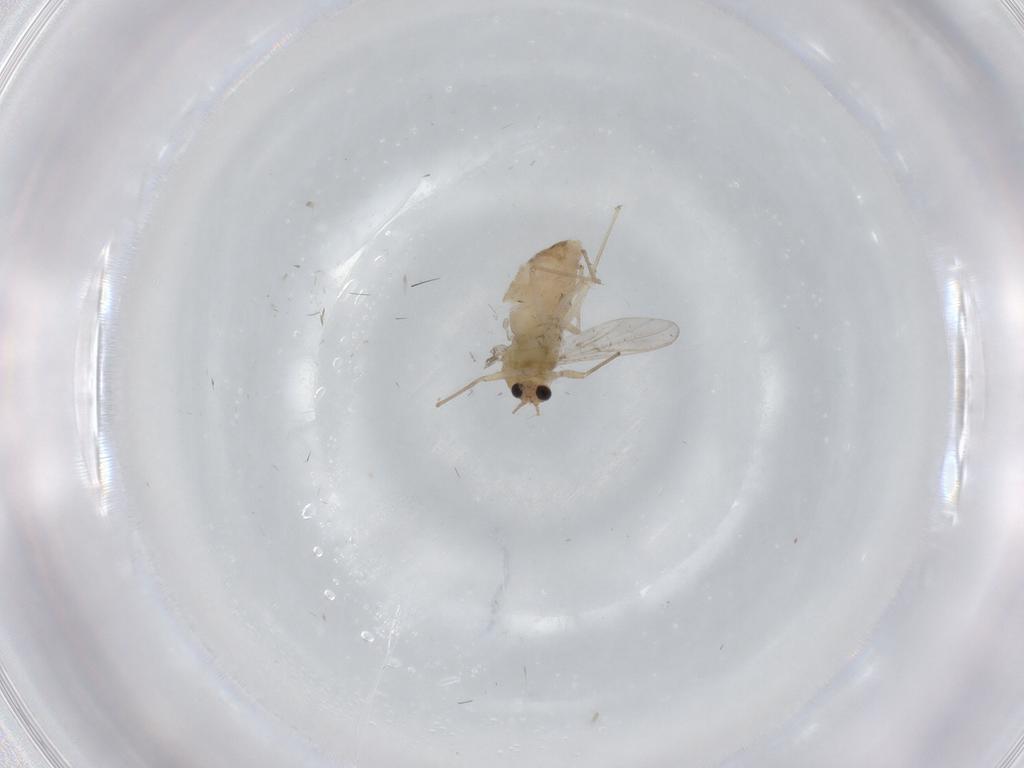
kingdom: Animalia
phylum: Arthropoda
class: Insecta
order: Diptera
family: Chironomidae
